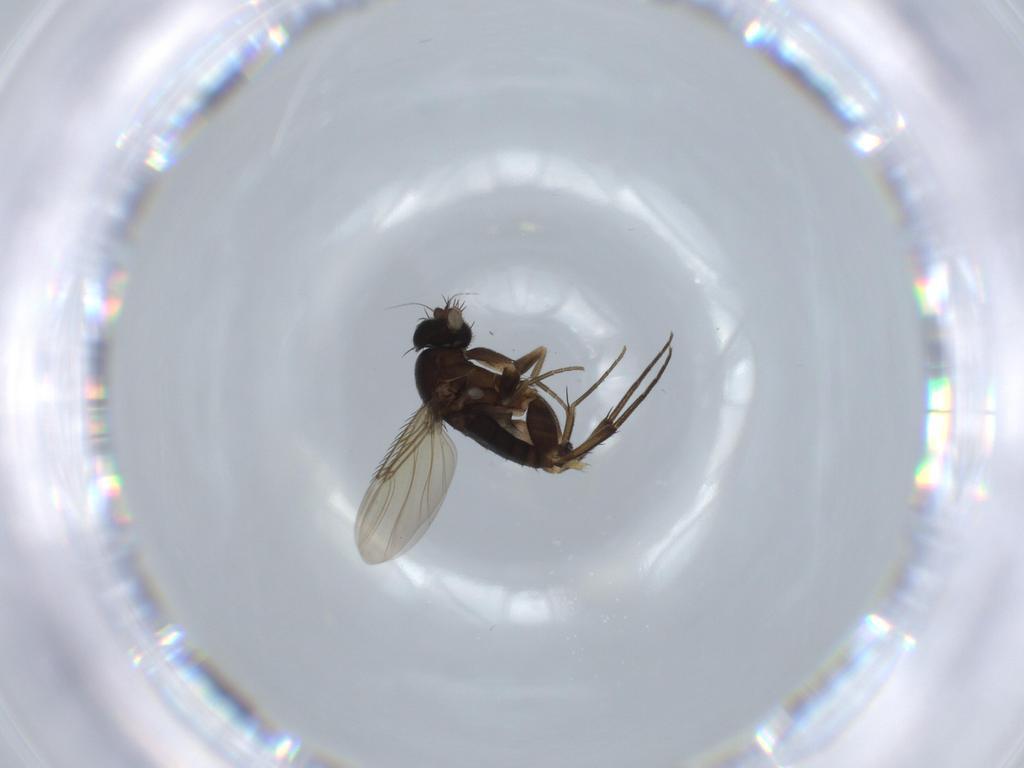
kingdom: Animalia
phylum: Arthropoda
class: Insecta
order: Diptera
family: Phoridae
